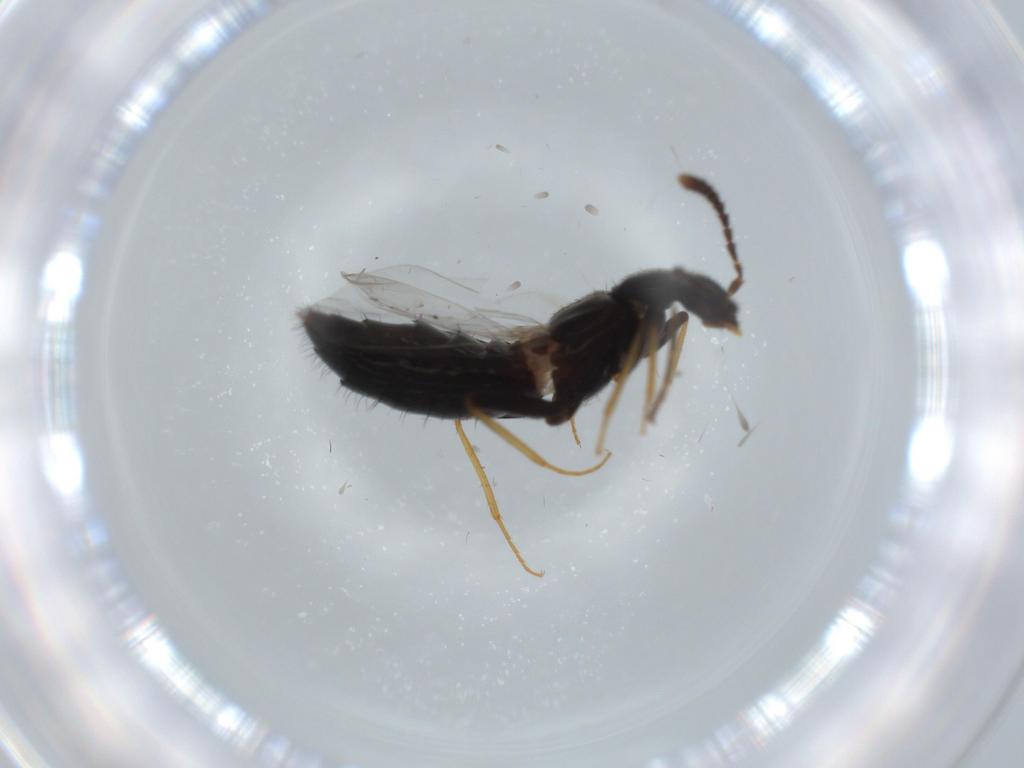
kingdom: Animalia
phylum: Arthropoda
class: Insecta
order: Coleoptera
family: Staphylinidae
